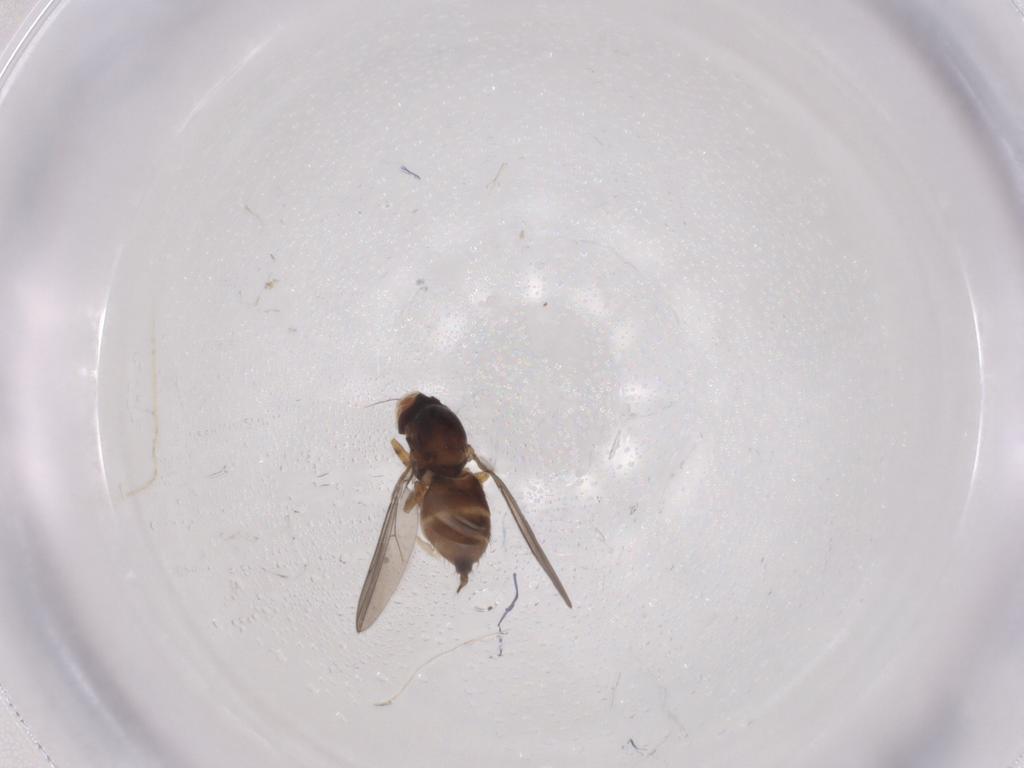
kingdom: Animalia
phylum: Arthropoda
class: Insecta
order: Diptera
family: Chloropidae
